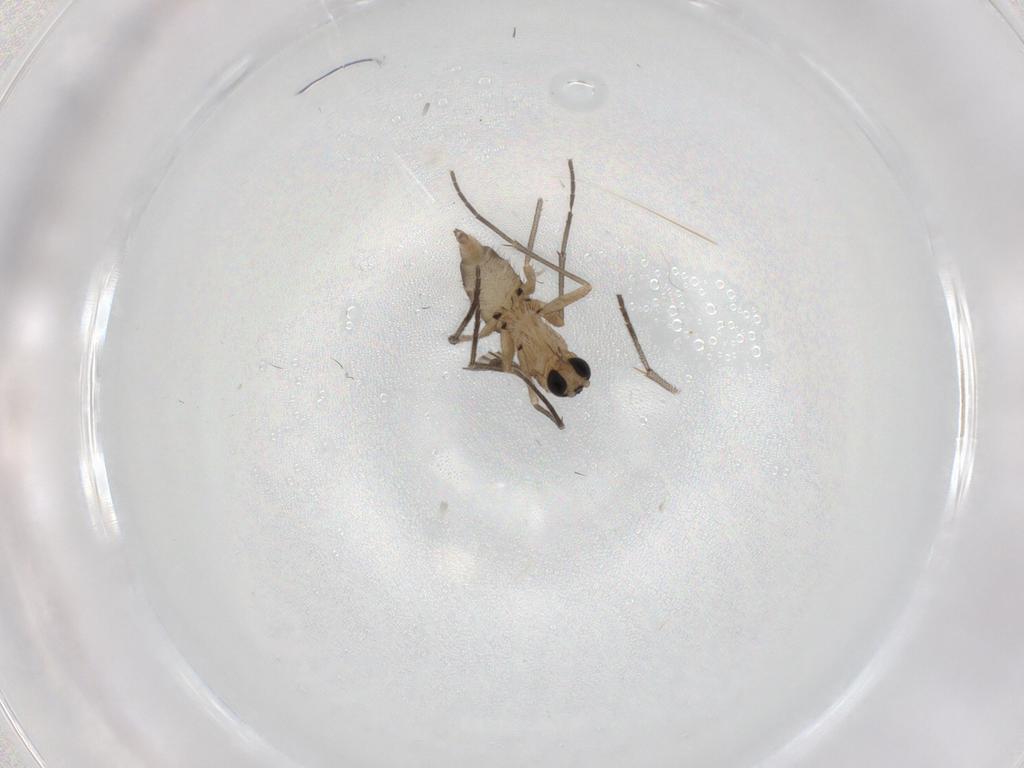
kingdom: Animalia
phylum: Arthropoda
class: Insecta
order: Diptera
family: Sciaridae
